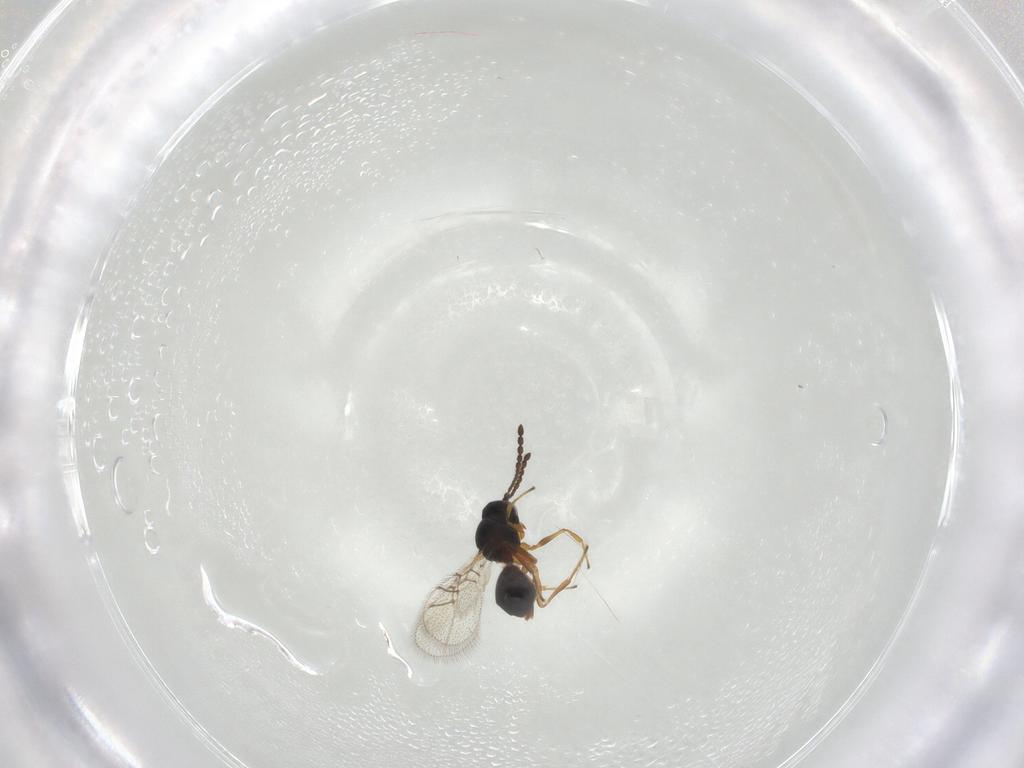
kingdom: Animalia
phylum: Arthropoda
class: Insecta
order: Hymenoptera
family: Figitidae
